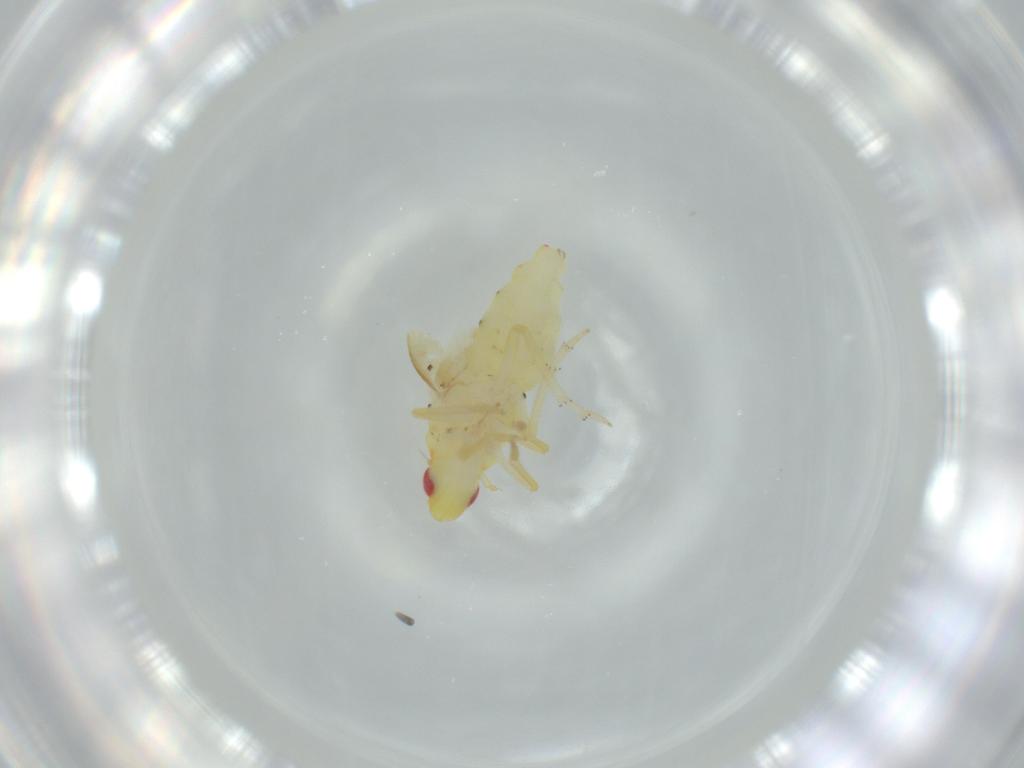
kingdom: Animalia
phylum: Arthropoda
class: Insecta
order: Hemiptera
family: Tropiduchidae
